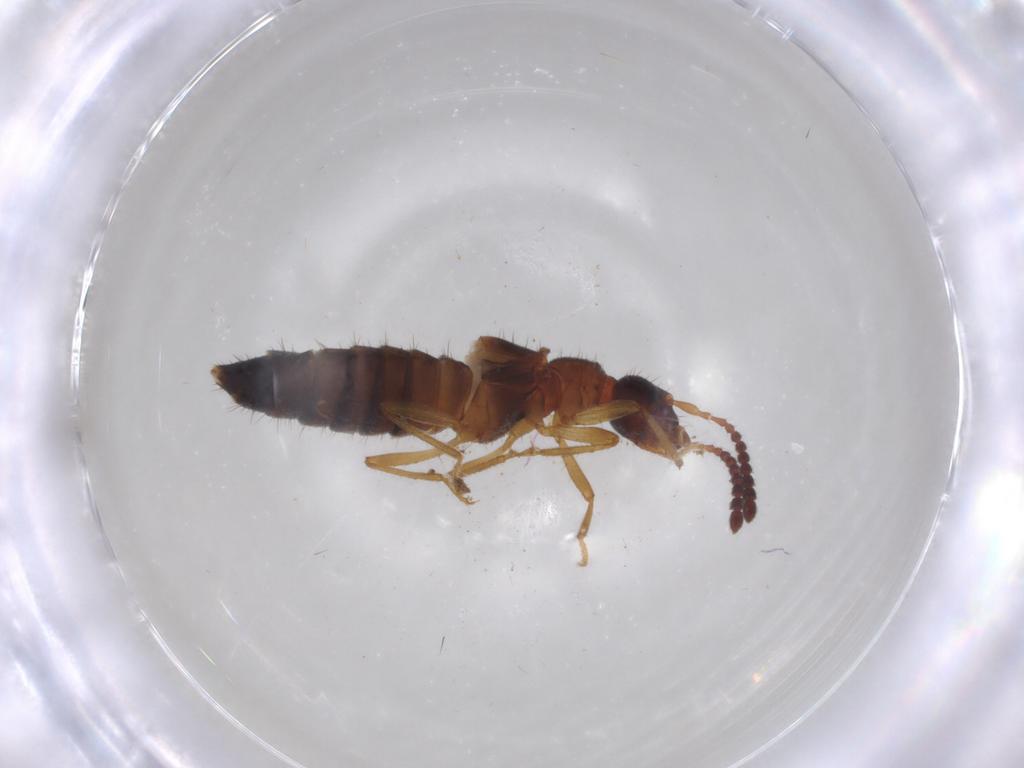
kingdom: Animalia
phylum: Arthropoda
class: Insecta
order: Coleoptera
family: Staphylinidae
